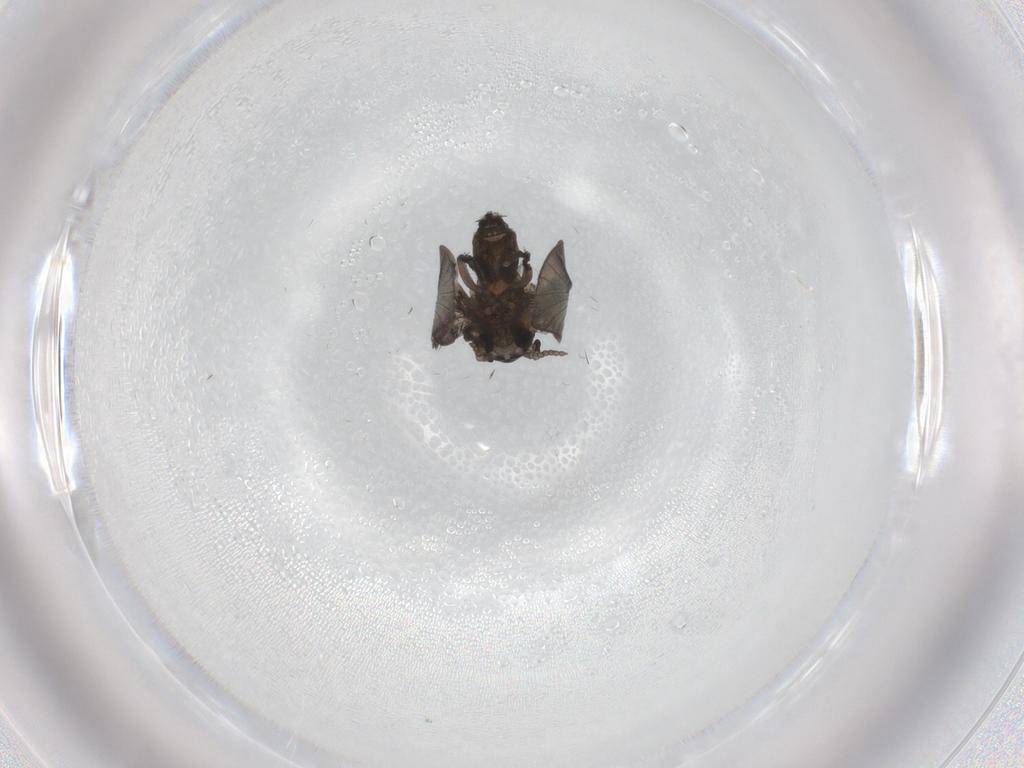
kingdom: Animalia
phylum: Arthropoda
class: Insecta
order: Diptera
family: Psychodidae
